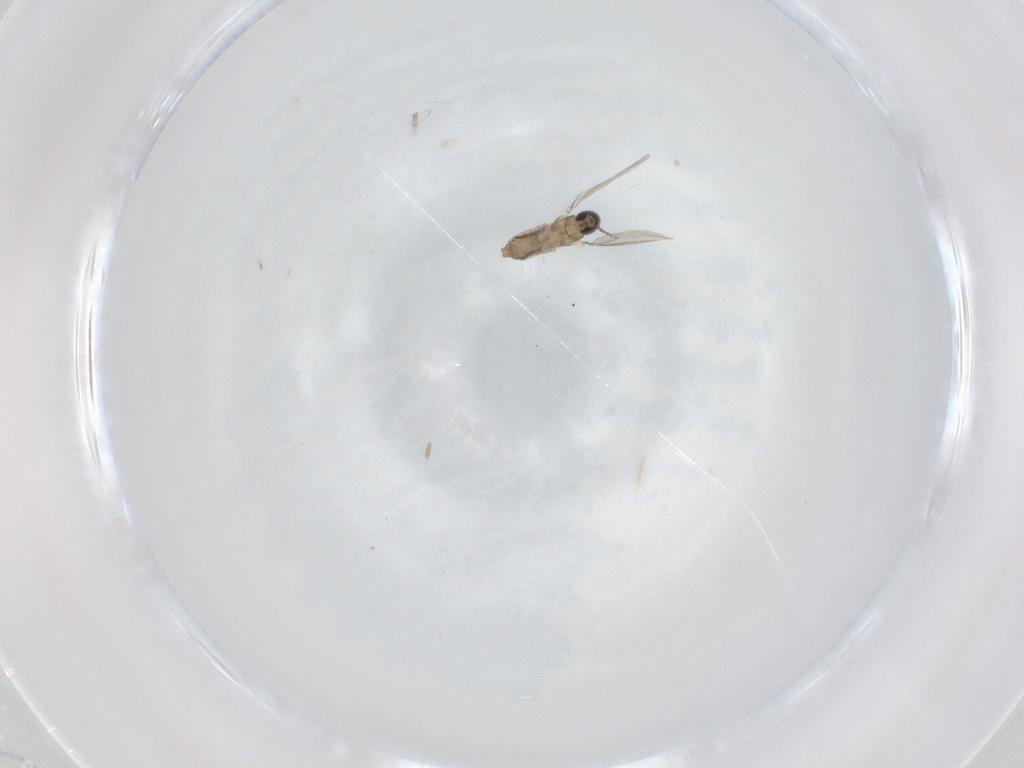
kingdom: Animalia
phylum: Arthropoda
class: Insecta
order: Diptera
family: Cecidomyiidae
